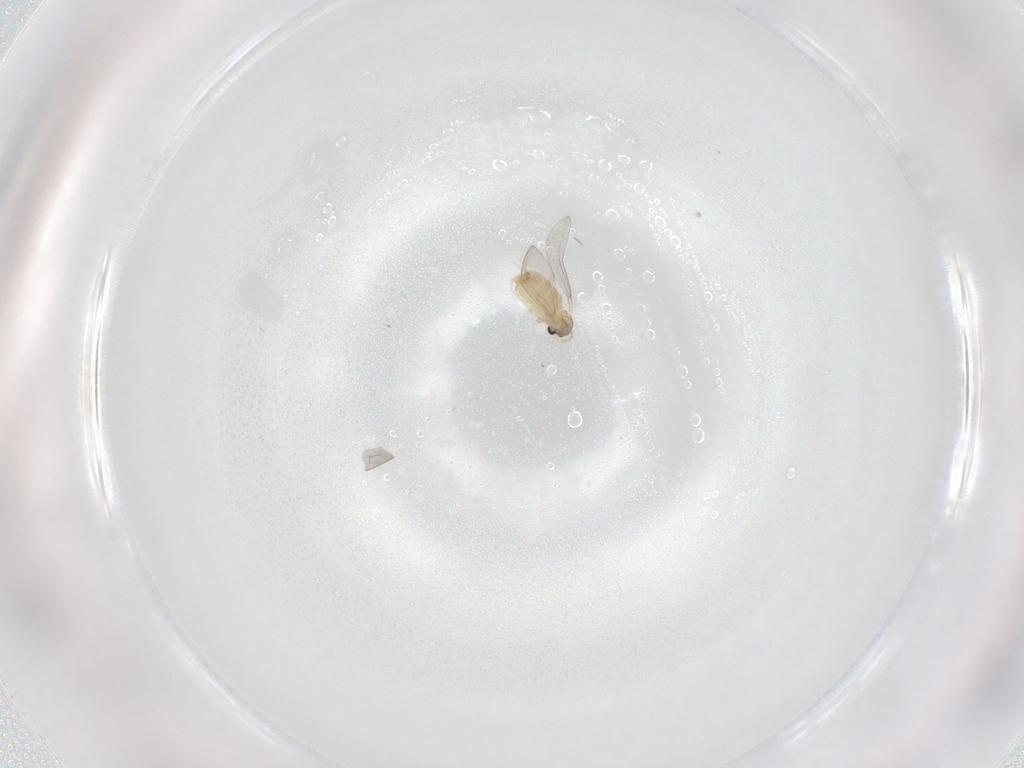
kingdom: Animalia
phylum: Arthropoda
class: Insecta
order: Diptera
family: Cecidomyiidae
